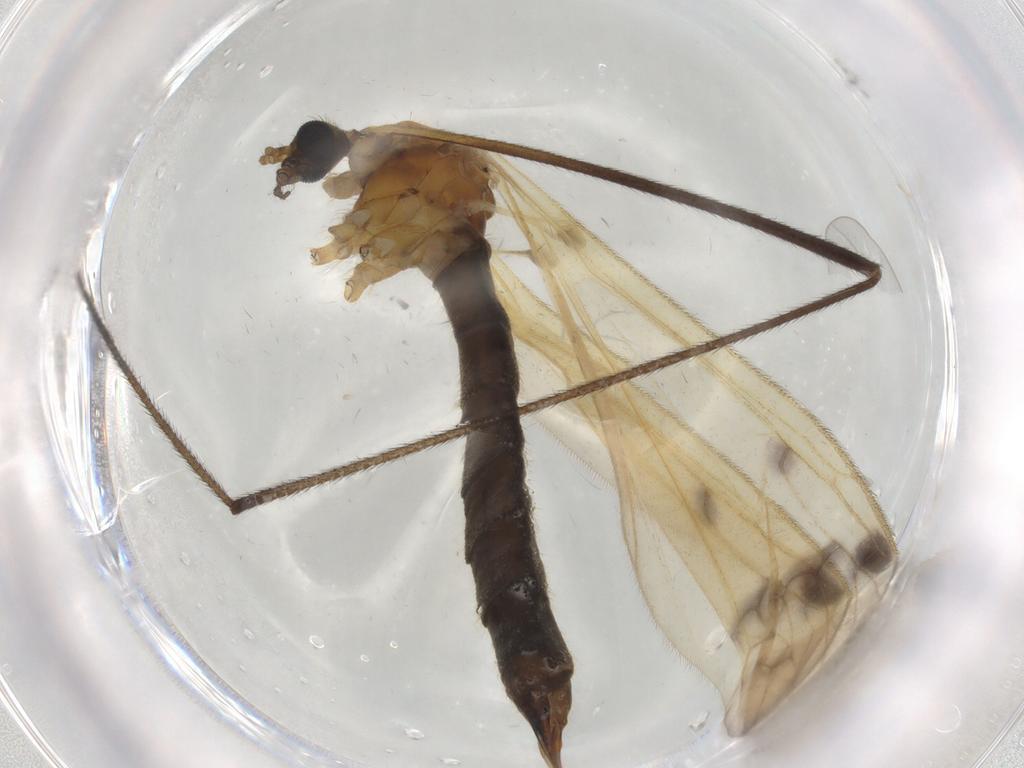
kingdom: Animalia
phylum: Arthropoda
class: Insecta
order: Diptera
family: Limoniidae
